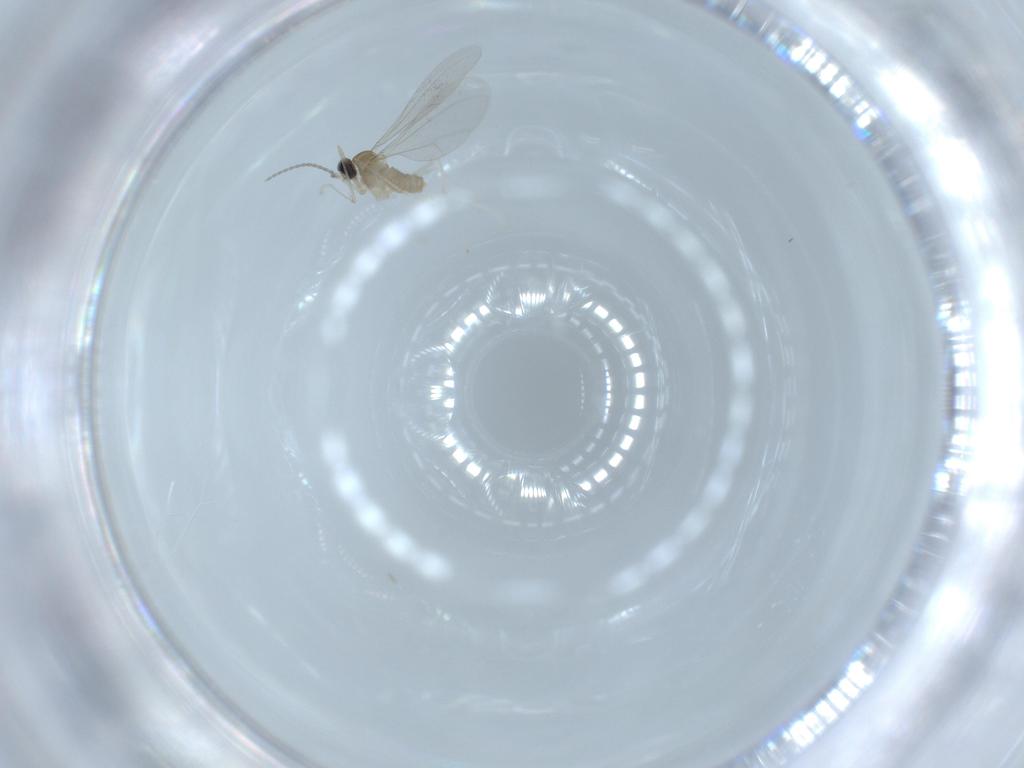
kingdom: Animalia
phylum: Arthropoda
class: Insecta
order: Diptera
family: Cecidomyiidae
